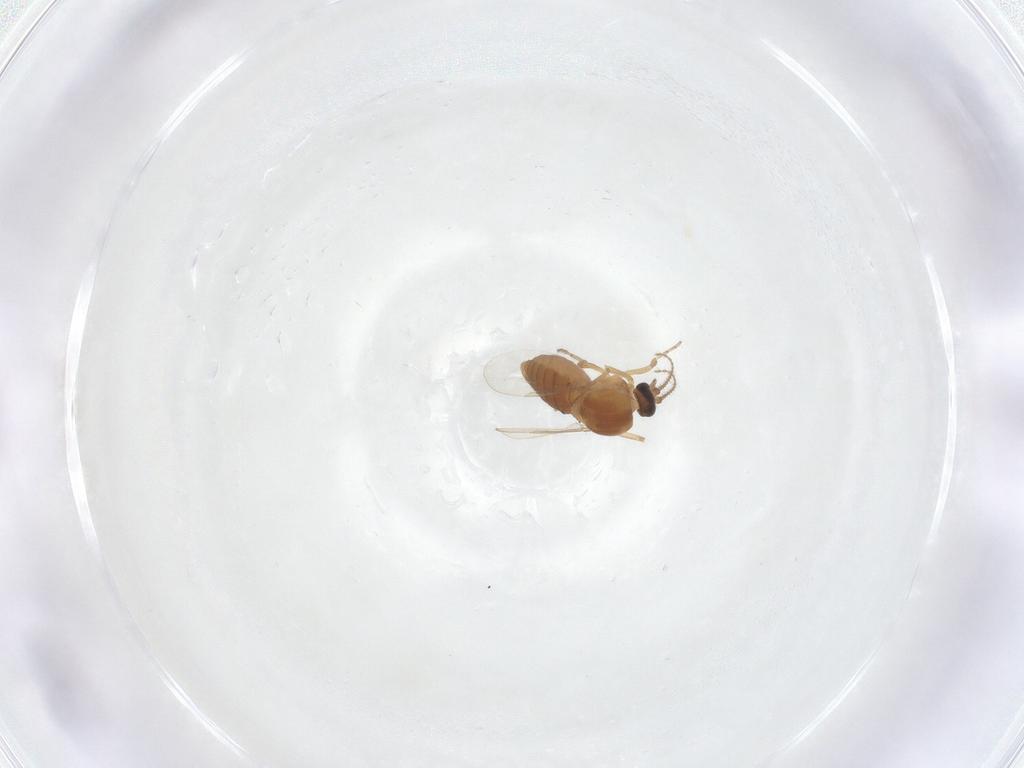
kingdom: Animalia
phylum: Arthropoda
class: Insecta
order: Diptera
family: Ceratopogonidae
